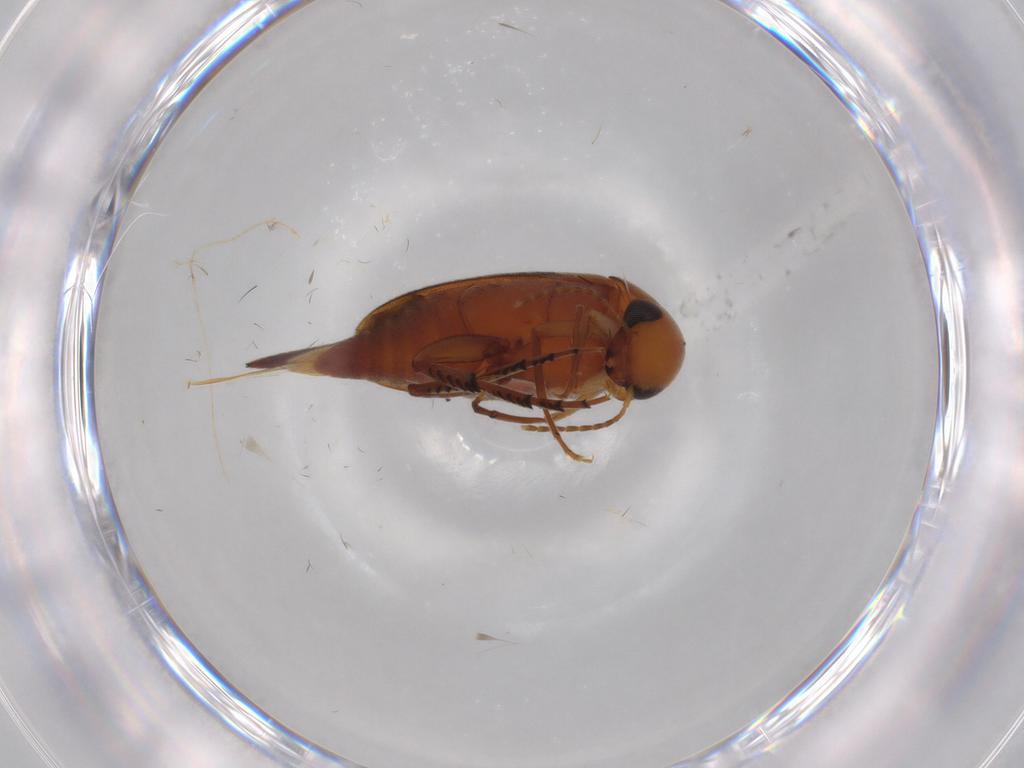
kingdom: Animalia
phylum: Arthropoda
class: Insecta
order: Coleoptera
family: Mordellidae
